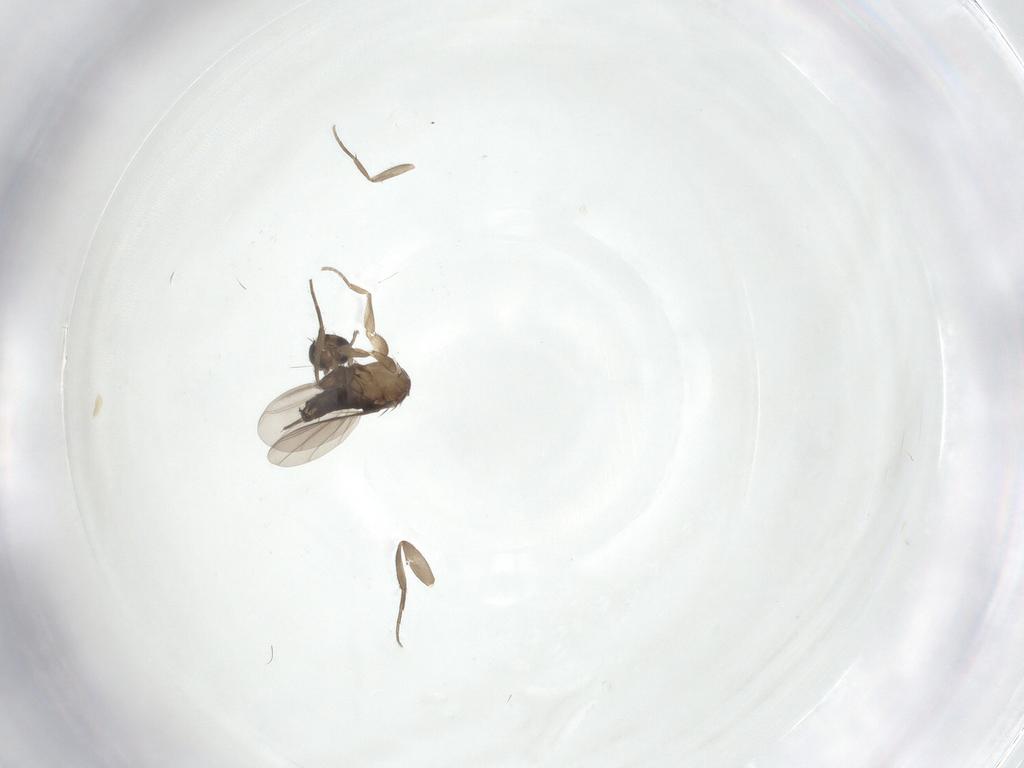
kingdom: Animalia
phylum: Arthropoda
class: Insecta
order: Diptera
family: Phoridae
